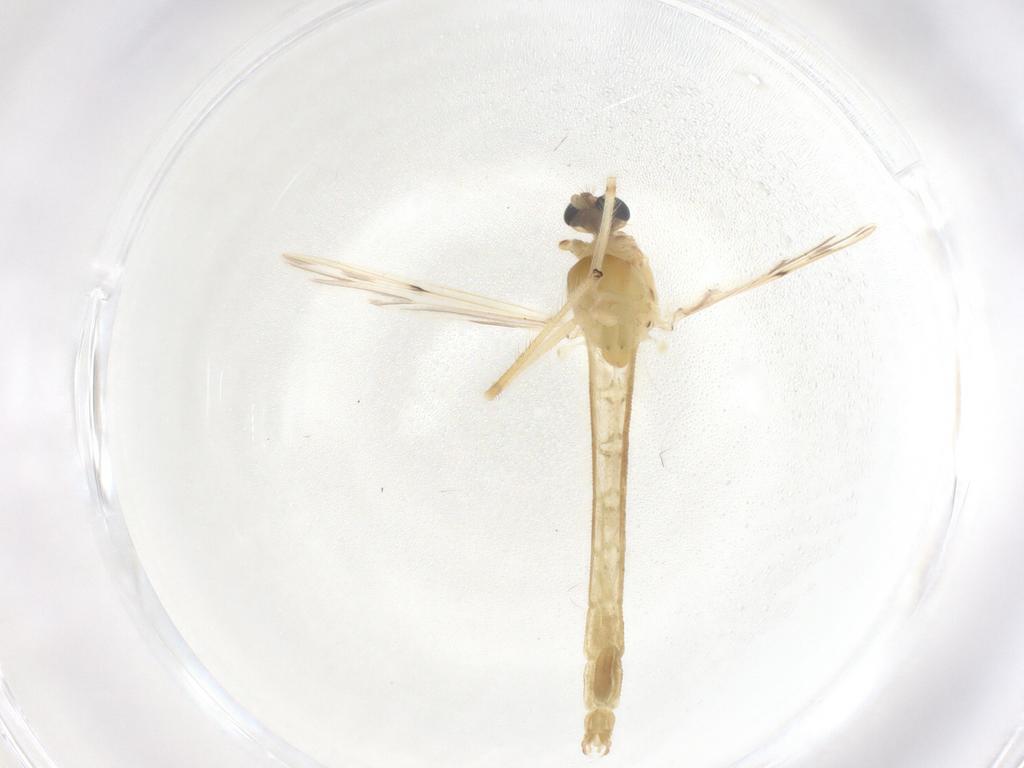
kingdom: Animalia
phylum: Arthropoda
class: Insecta
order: Diptera
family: Chironomidae
